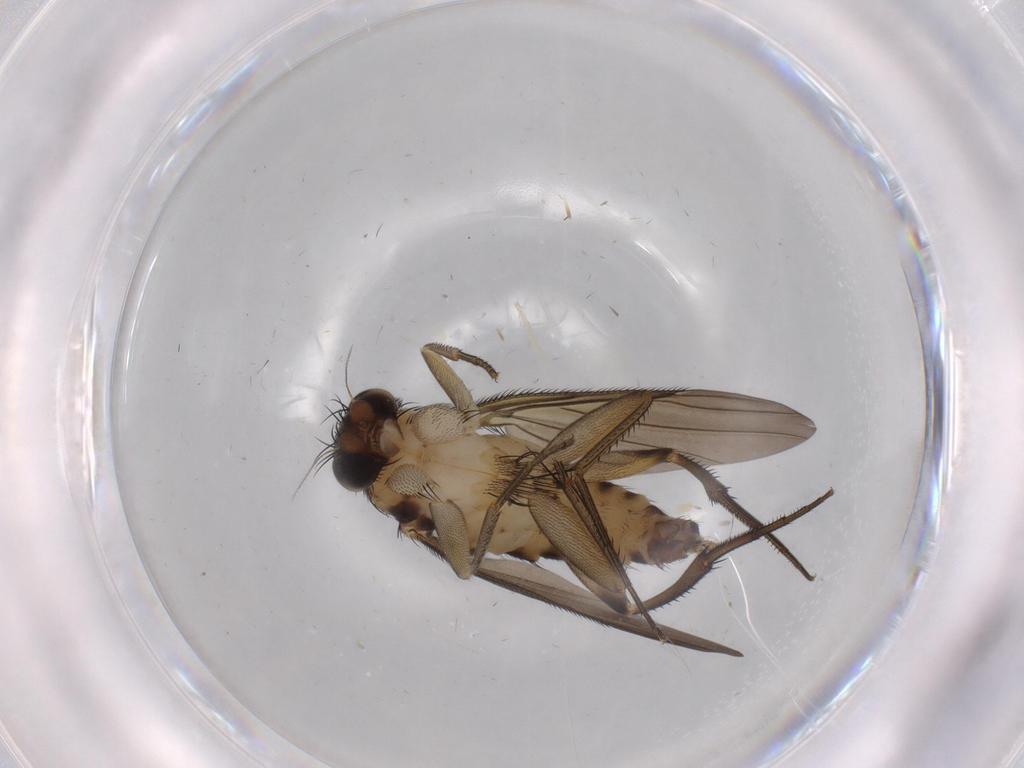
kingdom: Animalia
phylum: Arthropoda
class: Insecta
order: Diptera
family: Phoridae
